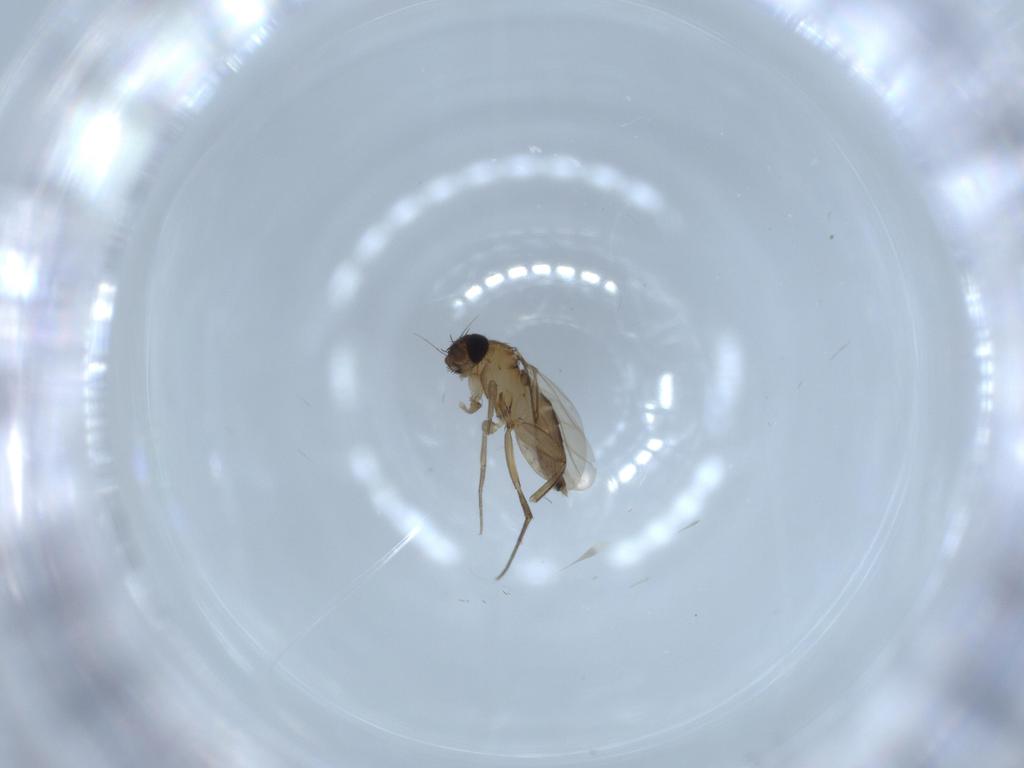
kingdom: Animalia
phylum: Arthropoda
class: Insecta
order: Diptera
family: Phoridae
